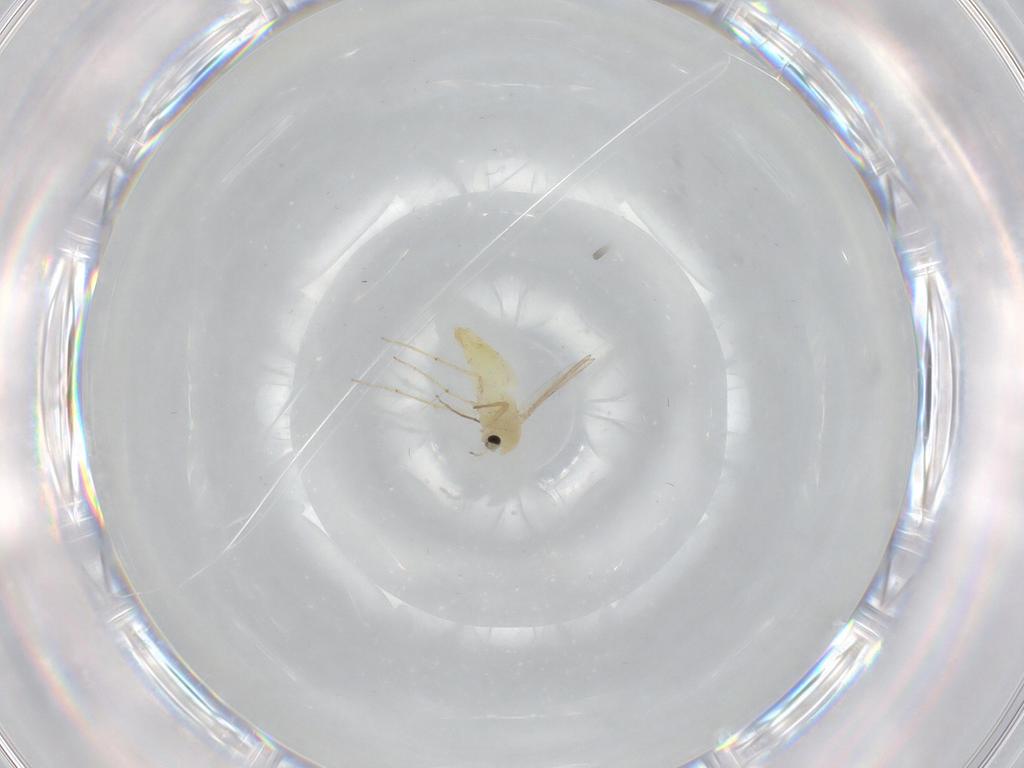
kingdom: Animalia
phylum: Arthropoda
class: Insecta
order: Diptera
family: Chironomidae
